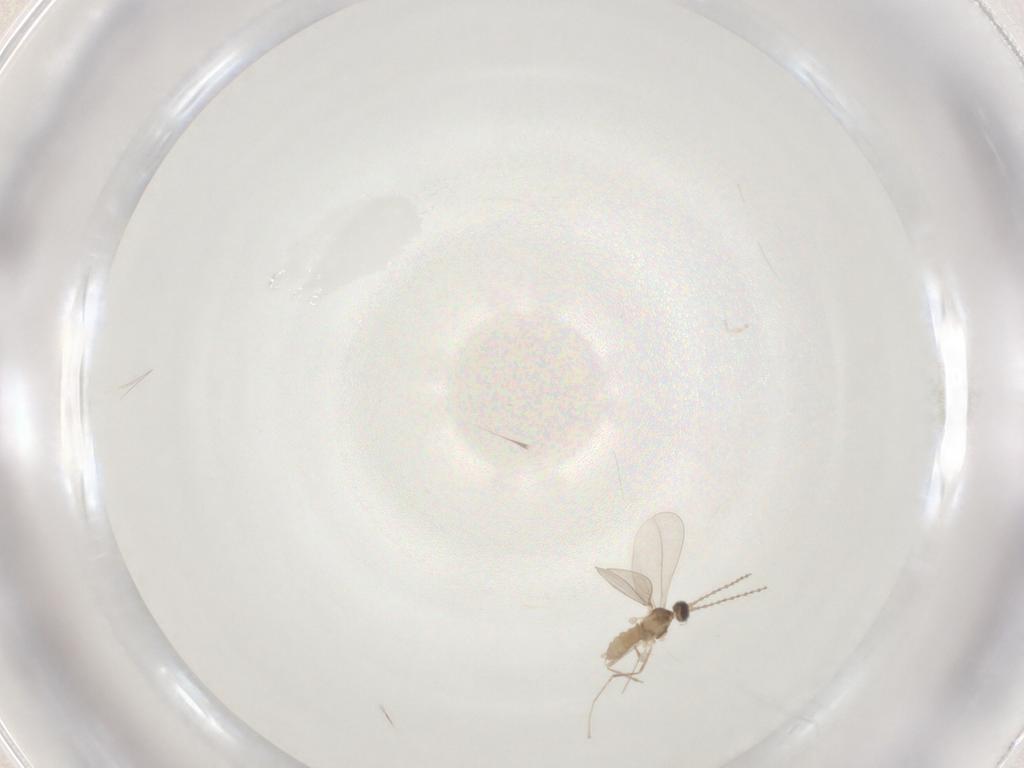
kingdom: Animalia
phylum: Arthropoda
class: Insecta
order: Diptera
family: Cecidomyiidae
